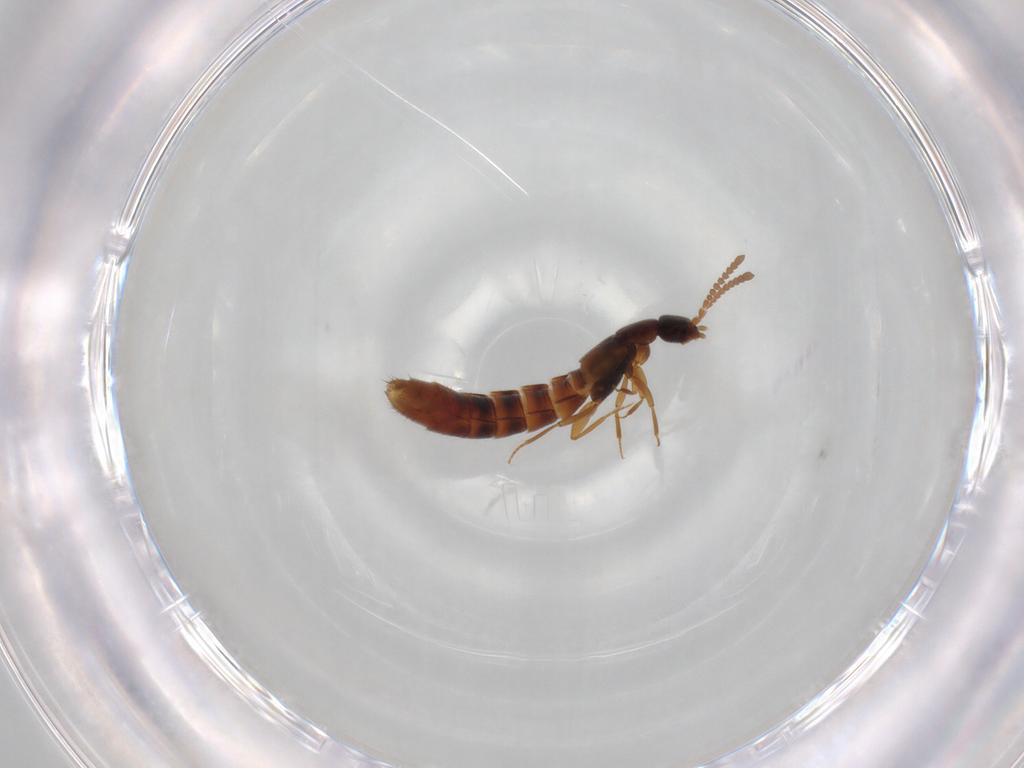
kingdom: Animalia
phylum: Arthropoda
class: Insecta
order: Coleoptera
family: Staphylinidae
